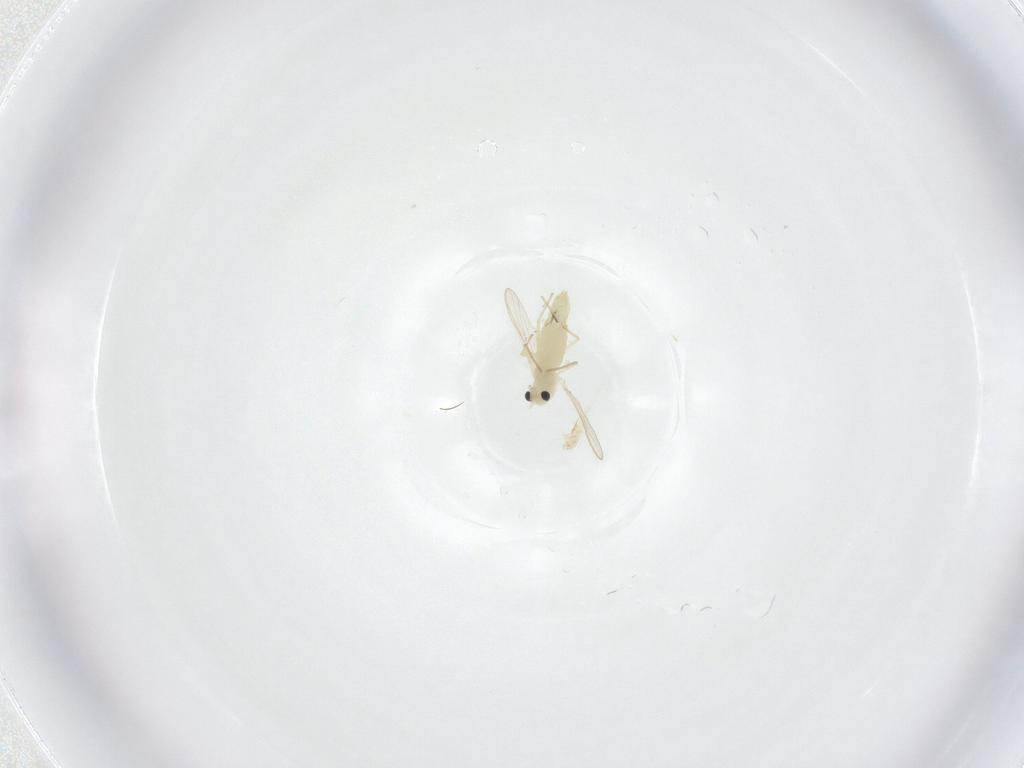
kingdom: Animalia
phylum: Arthropoda
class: Insecta
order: Diptera
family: Chironomidae
